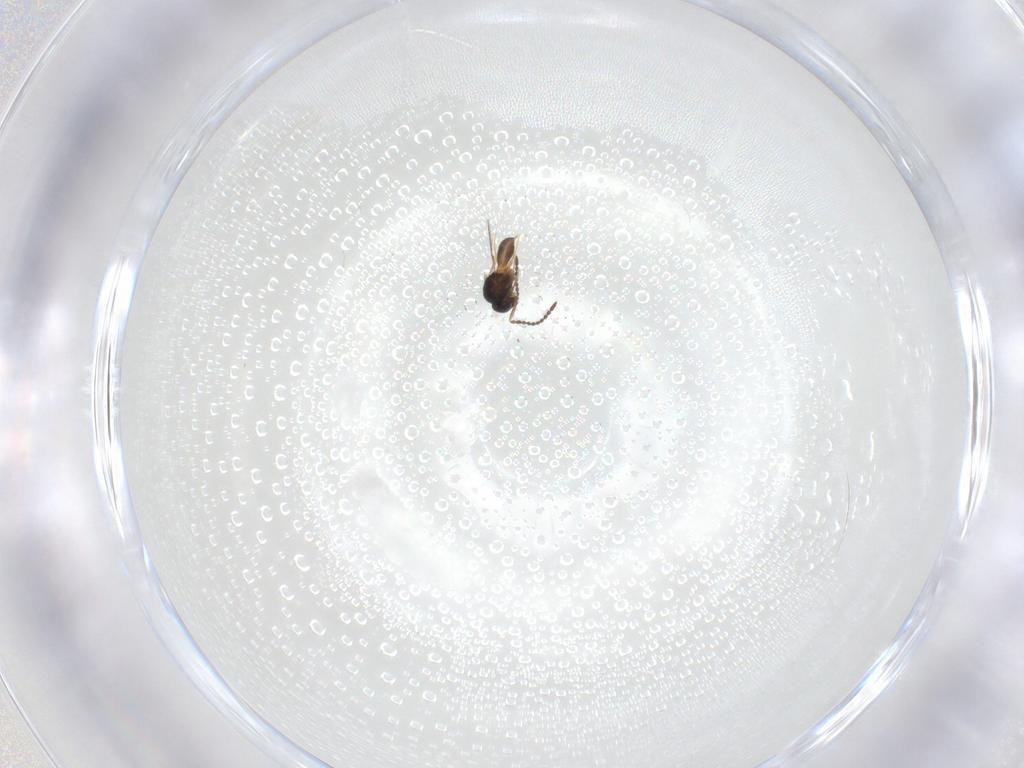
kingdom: Animalia
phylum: Arthropoda
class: Insecta
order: Hymenoptera
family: Scelionidae
